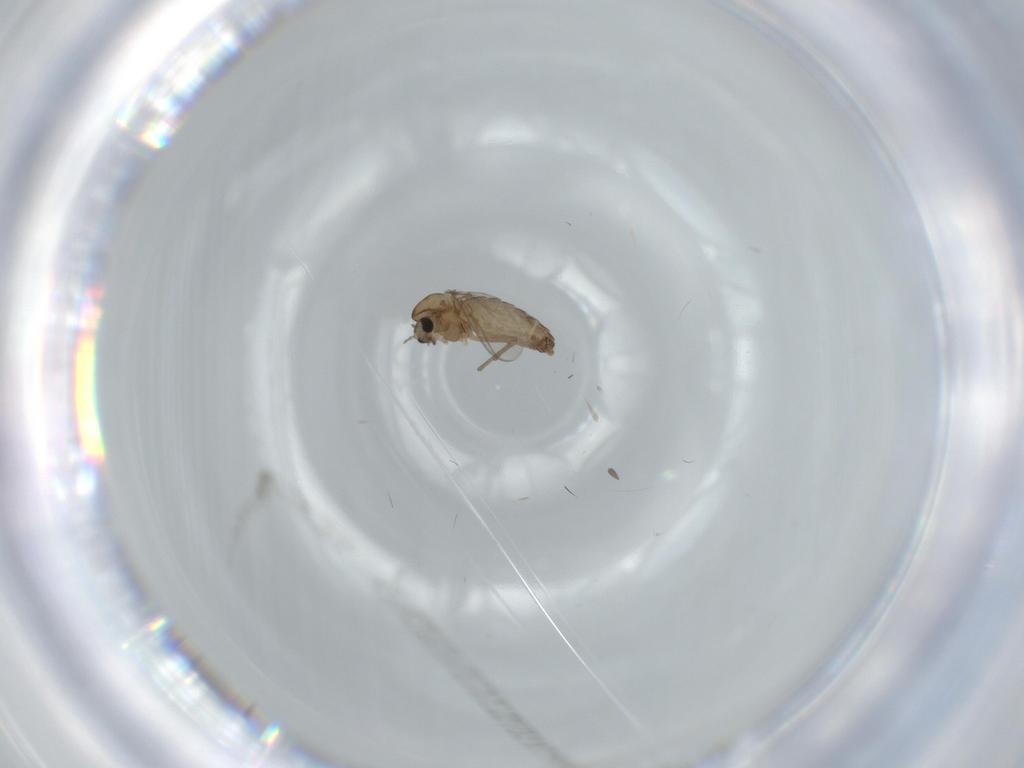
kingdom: Animalia
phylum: Arthropoda
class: Insecta
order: Diptera
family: Chironomidae
